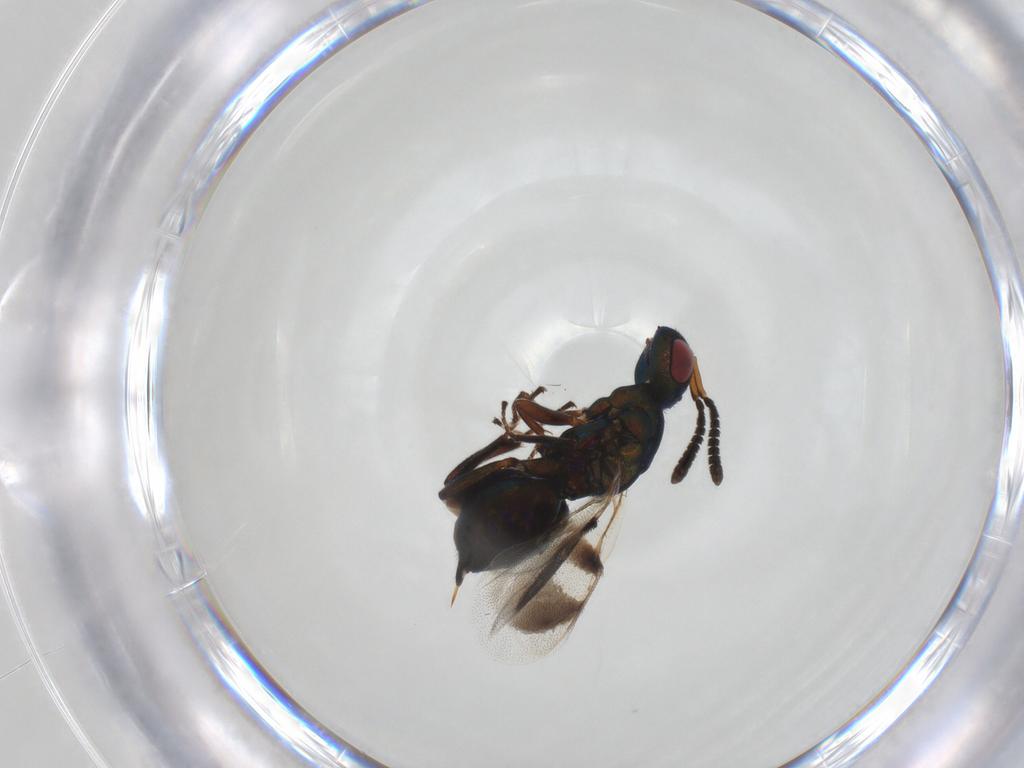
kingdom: Animalia
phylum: Arthropoda
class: Insecta
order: Hymenoptera
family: Pteromalidae
